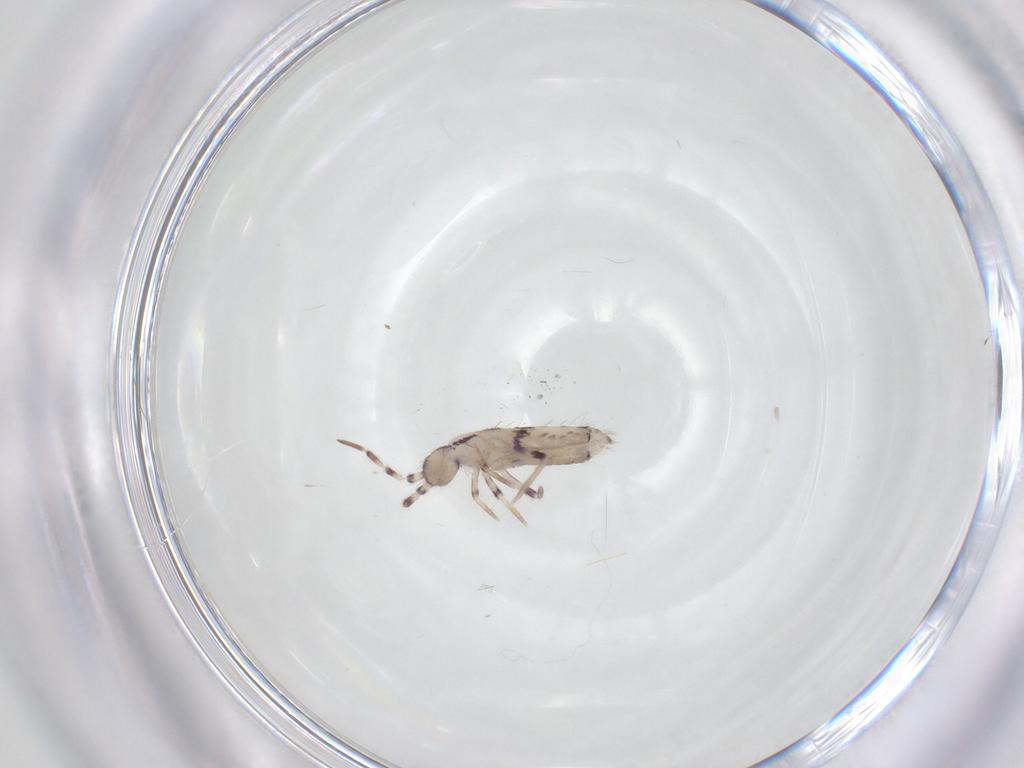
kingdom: Animalia
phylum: Arthropoda
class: Collembola
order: Entomobryomorpha
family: Entomobryidae
